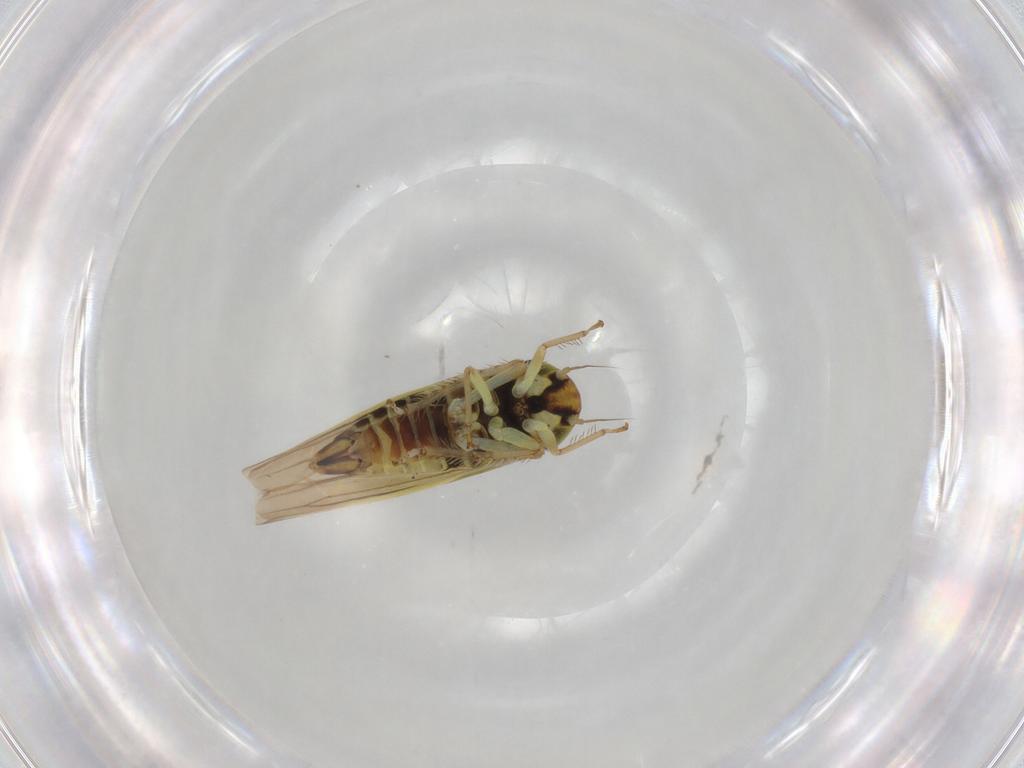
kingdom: Animalia
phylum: Arthropoda
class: Insecta
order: Hemiptera
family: Cicadellidae
